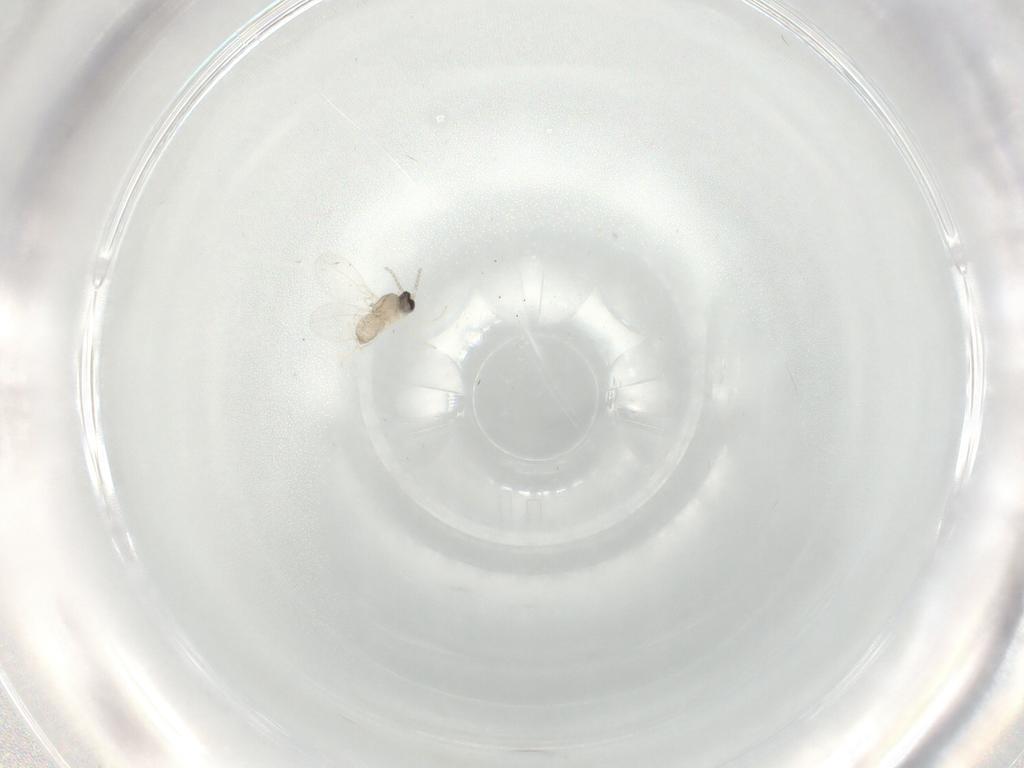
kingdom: Animalia
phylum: Arthropoda
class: Insecta
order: Diptera
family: Cecidomyiidae
